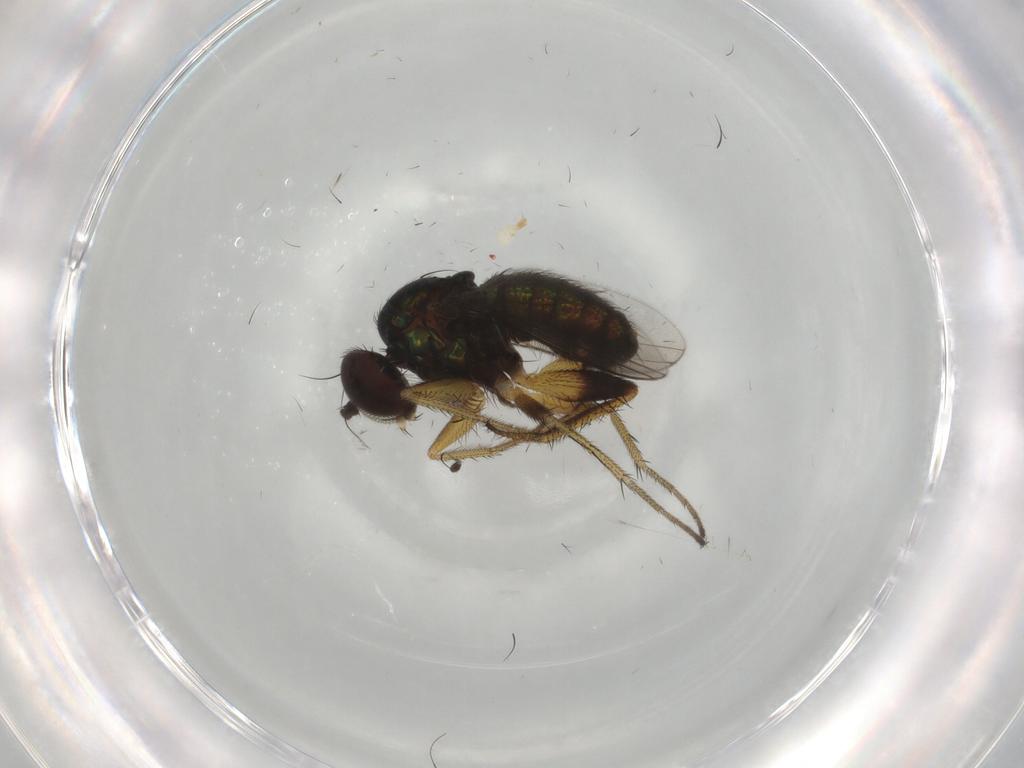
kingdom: Animalia
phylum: Arthropoda
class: Insecta
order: Diptera
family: Dolichopodidae
